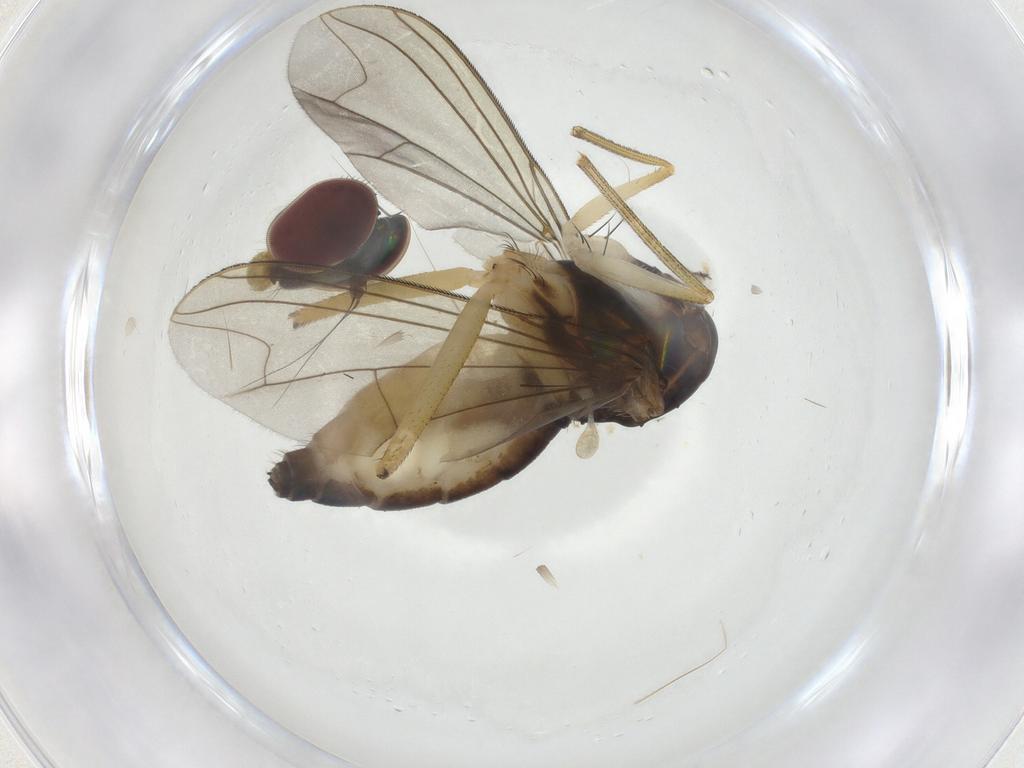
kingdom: Animalia
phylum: Arthropoda
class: Insecta
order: Diptera
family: Dolichopodidae
